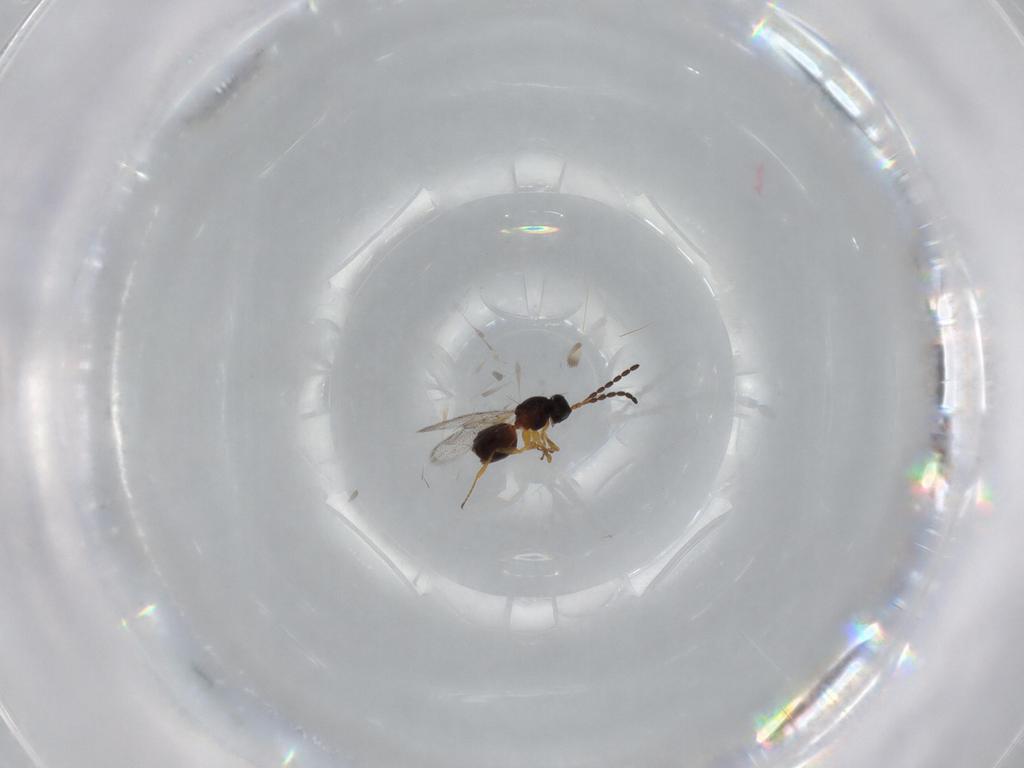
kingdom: Animalia
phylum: Arthropoda
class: Insecta
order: Hymenoptera
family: Figitidae
